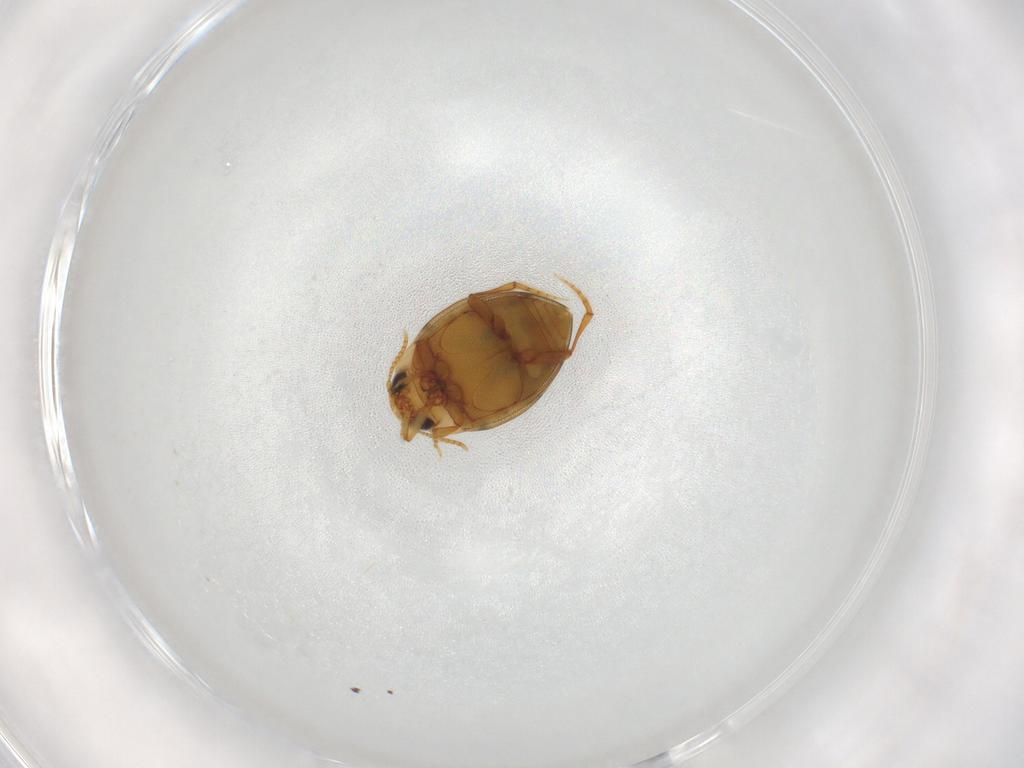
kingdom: Animalia
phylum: Arthropoda
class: Insecta
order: Coleoptera
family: Dytiscidae
